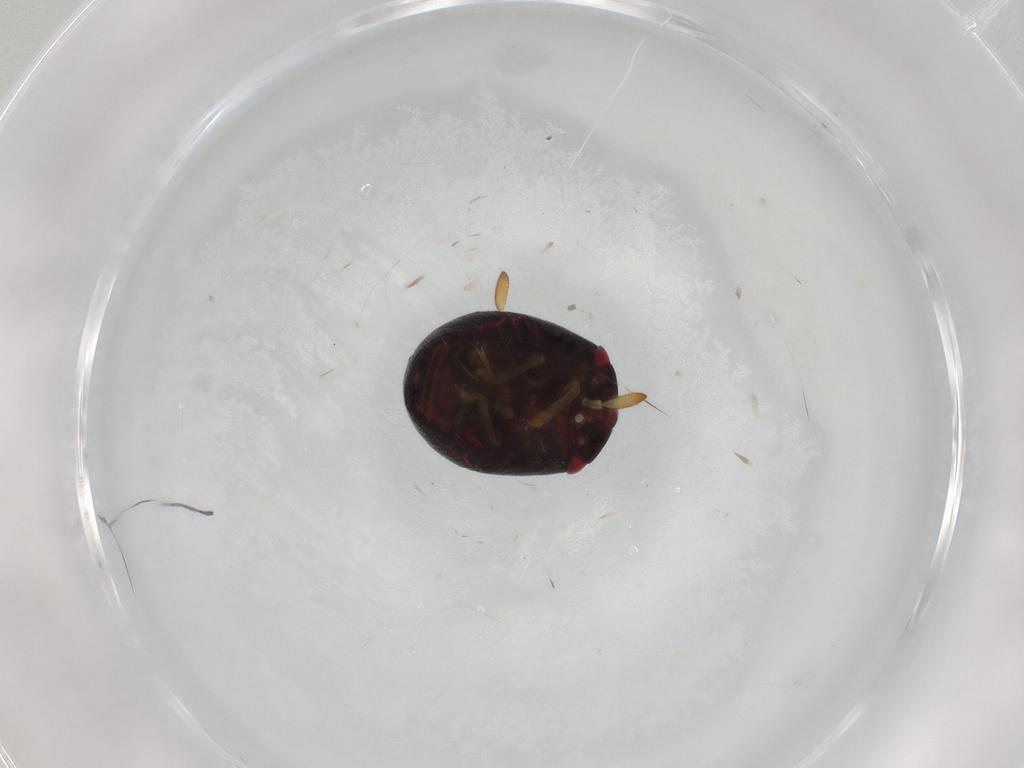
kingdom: Animalia
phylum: Arthropoda
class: Insecta
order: Hemiptera
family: Scutelleridae
